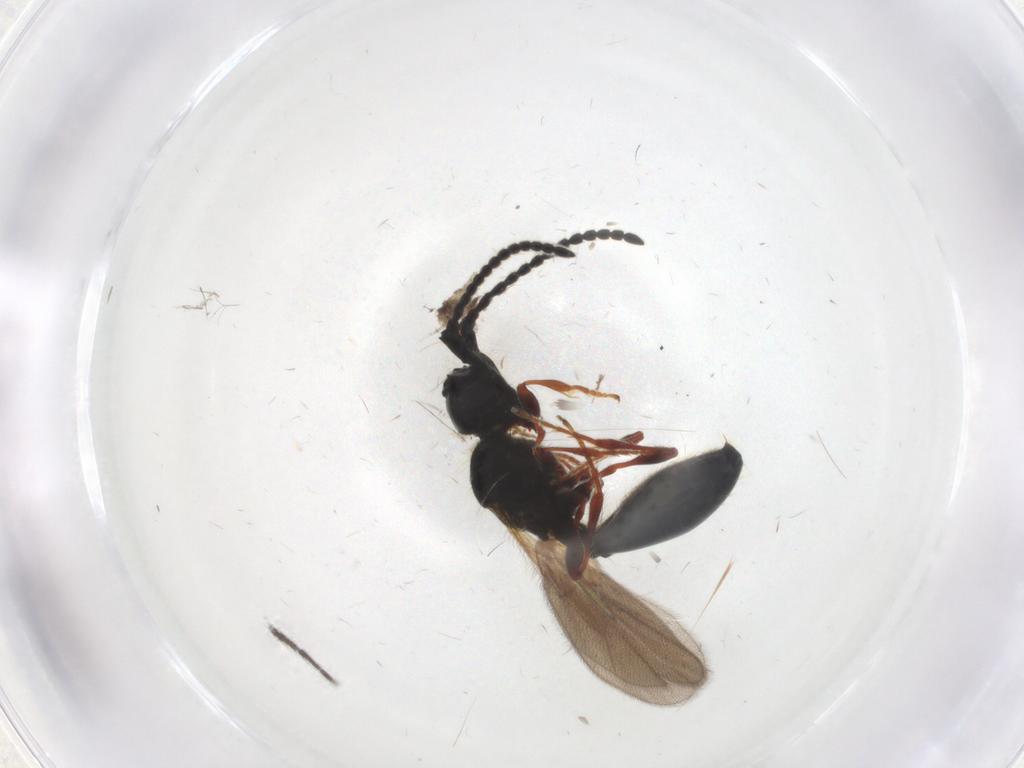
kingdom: Animalia
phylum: Arthropoda
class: Insecta
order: Hymenoptera
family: Diapriidae
